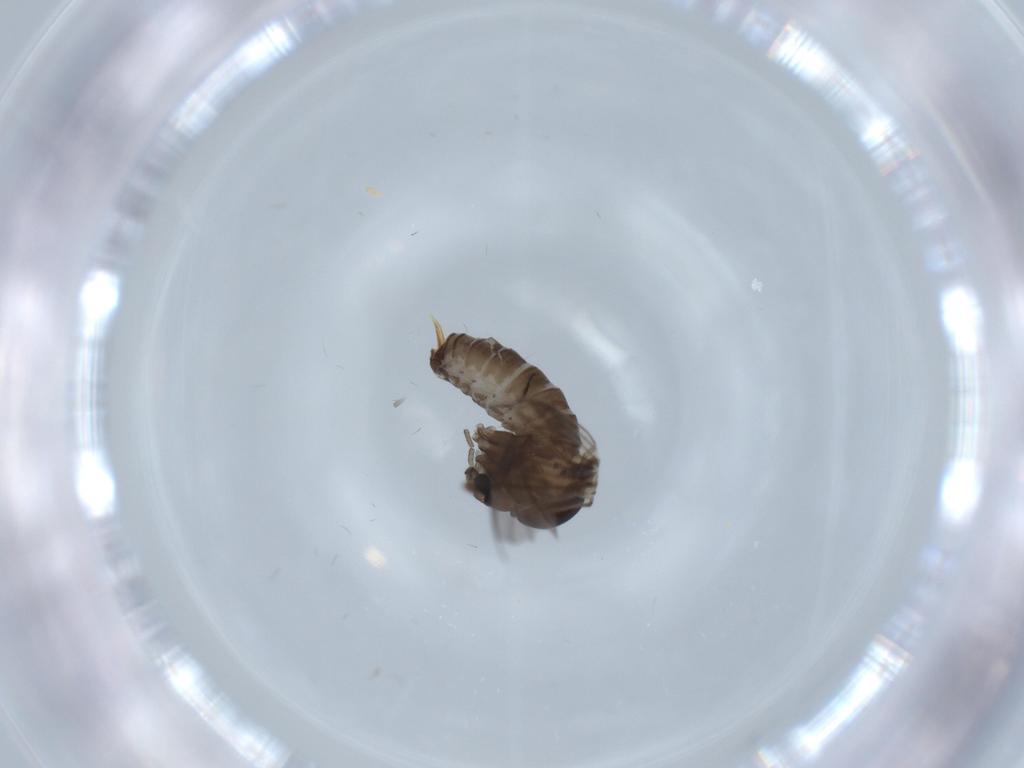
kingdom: Animalia
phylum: Arthropoda
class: Insecta
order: Diptera
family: Psychodidae
